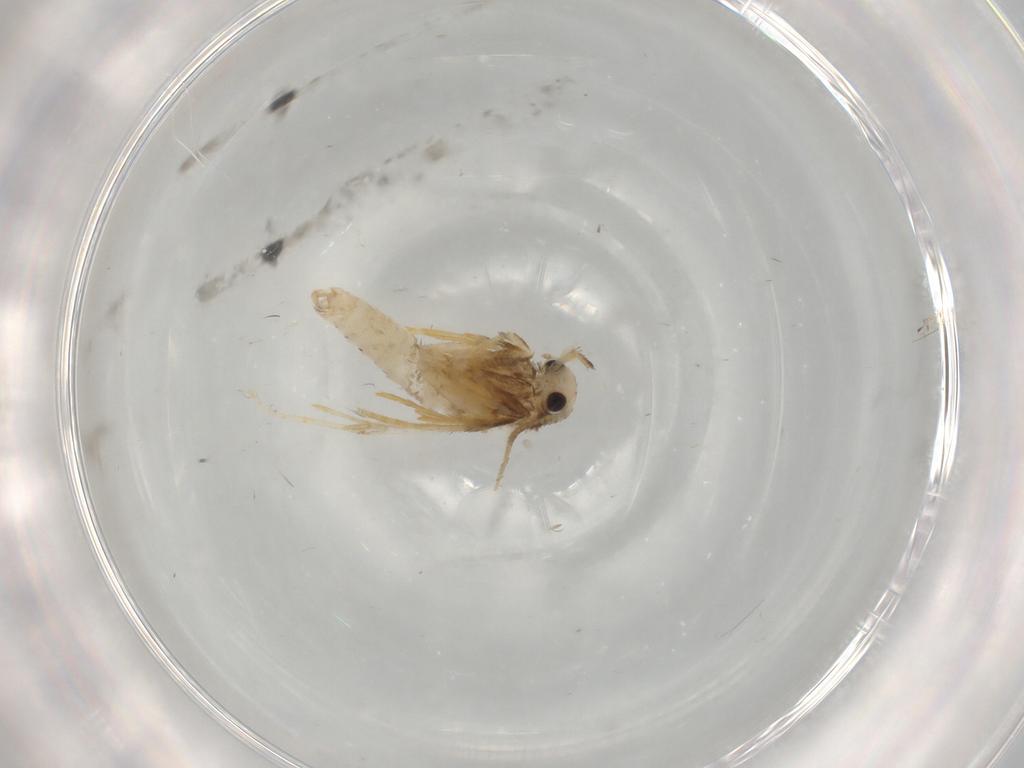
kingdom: Animalia
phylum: Arthropoda
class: Insecta
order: Lepidoptera
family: Psychidae
